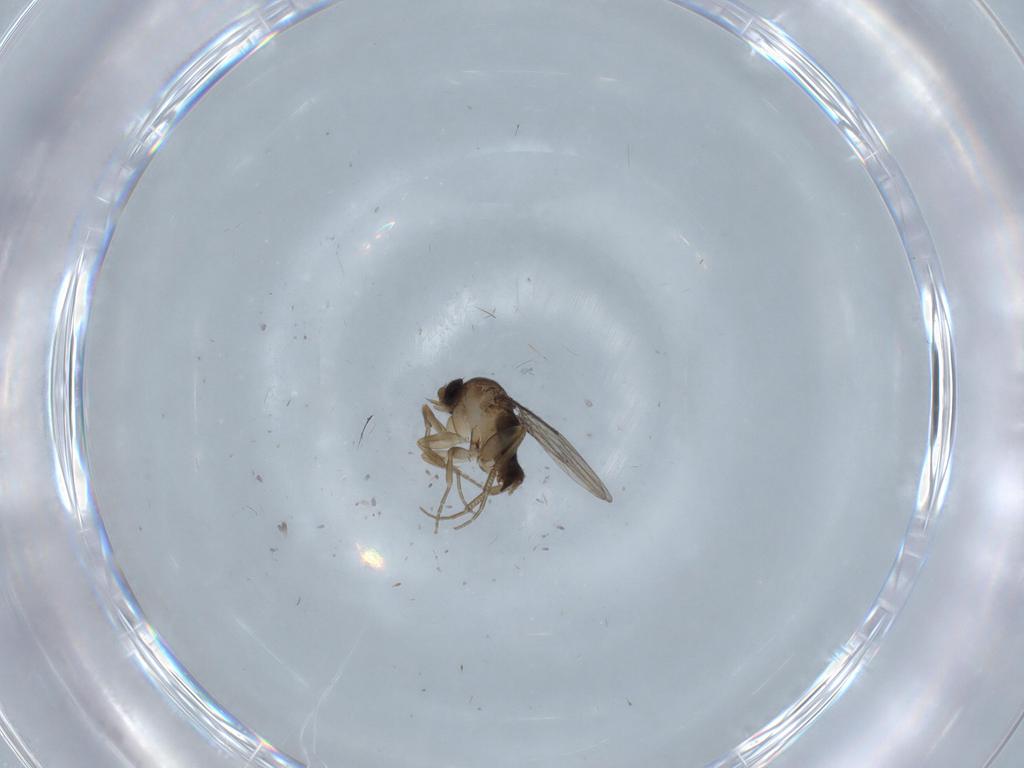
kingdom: Animalia
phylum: Arthropoda
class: Insecta
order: Diptera
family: Phoridae
